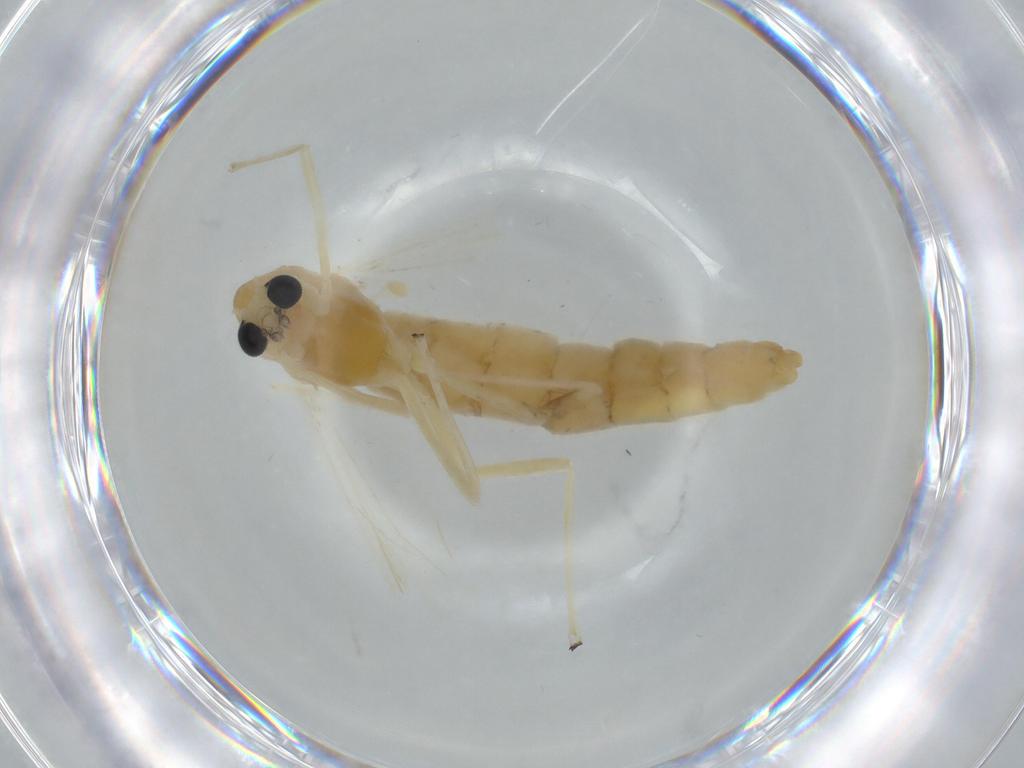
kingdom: Animalia
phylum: Arthropoda
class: Insecta
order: Diptera
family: Chironomidae
